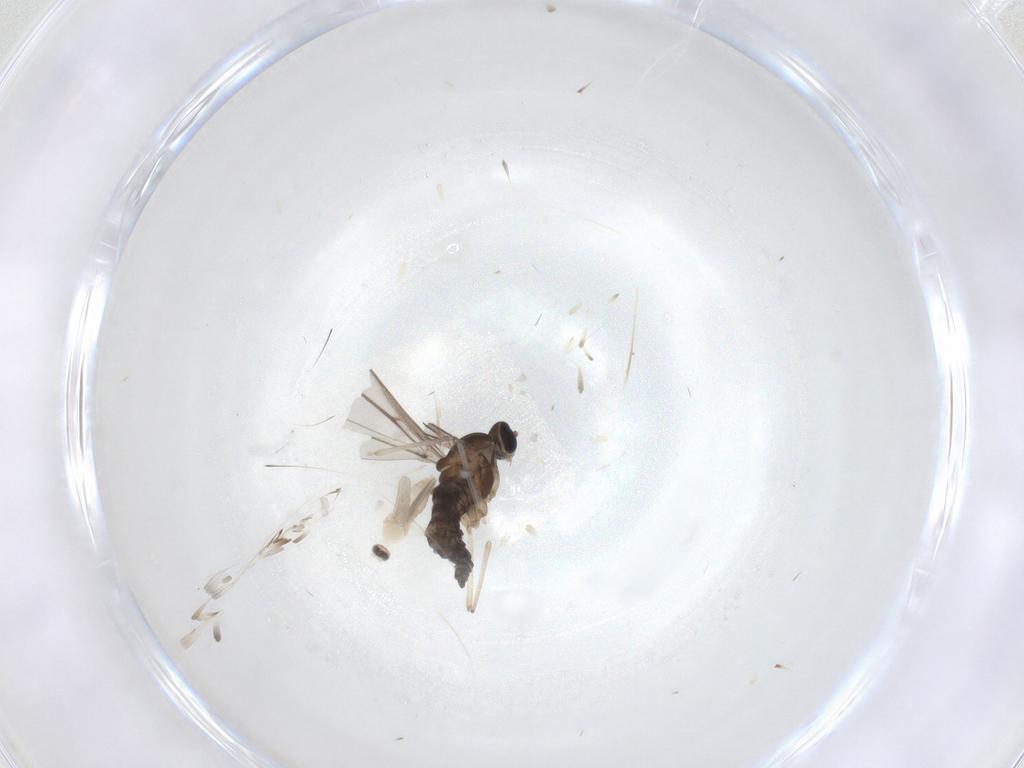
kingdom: Animalia
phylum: Arthropoda
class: Insecta
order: Diptera
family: Cecidomyiidae
